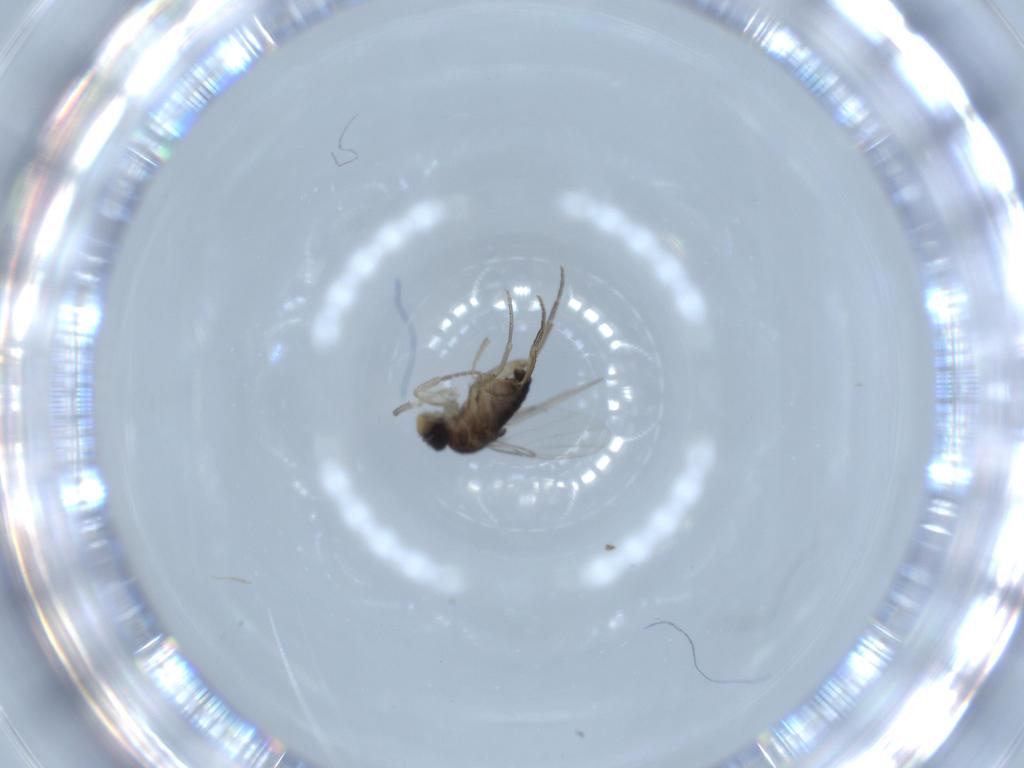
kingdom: Animalia
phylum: Arthropoda
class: Insecta
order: Diptera
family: Phoridae
